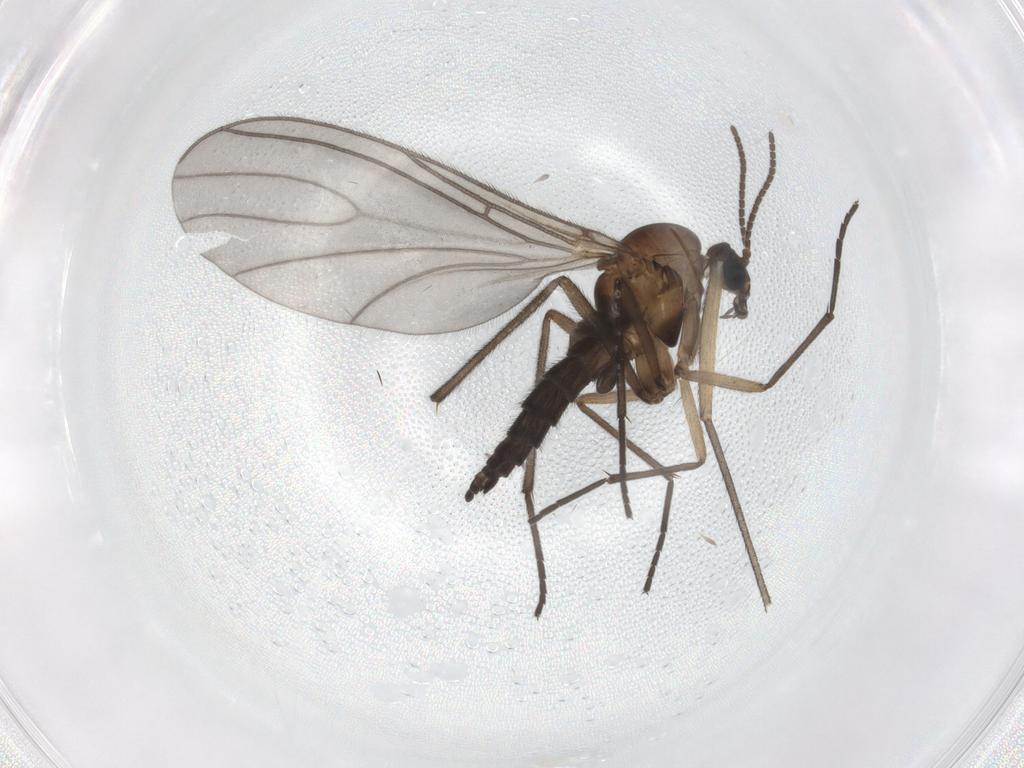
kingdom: Animalia
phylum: Arthropoda
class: Insecta
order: Diptera
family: Sciaridae
